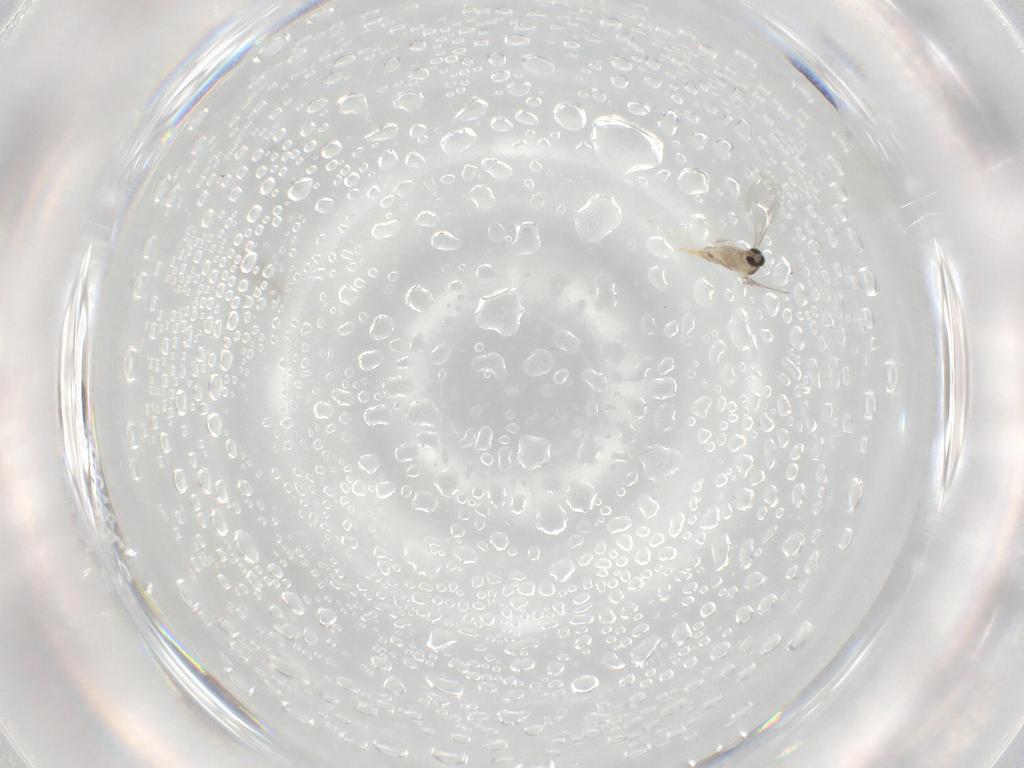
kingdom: Animalia
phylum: Arthropoda
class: Insecta
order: Diptera
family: Cecidomyiidae
